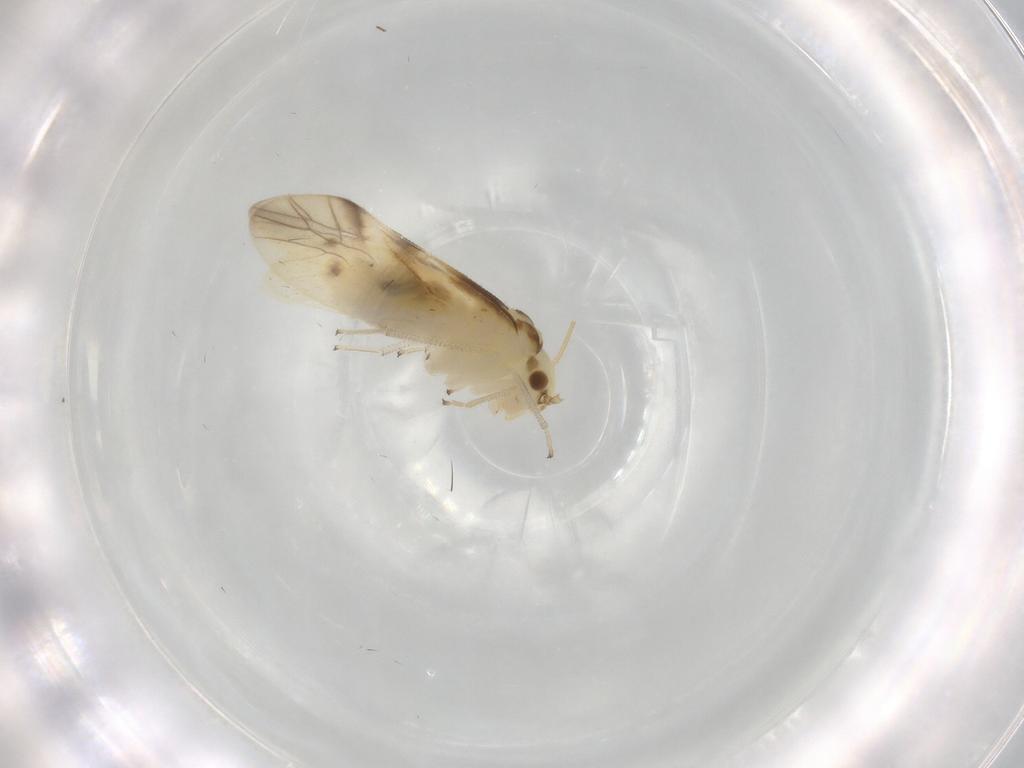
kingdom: Animalia
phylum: Arthropoda
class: Insecta
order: Psocodea
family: Caeciliusidae
